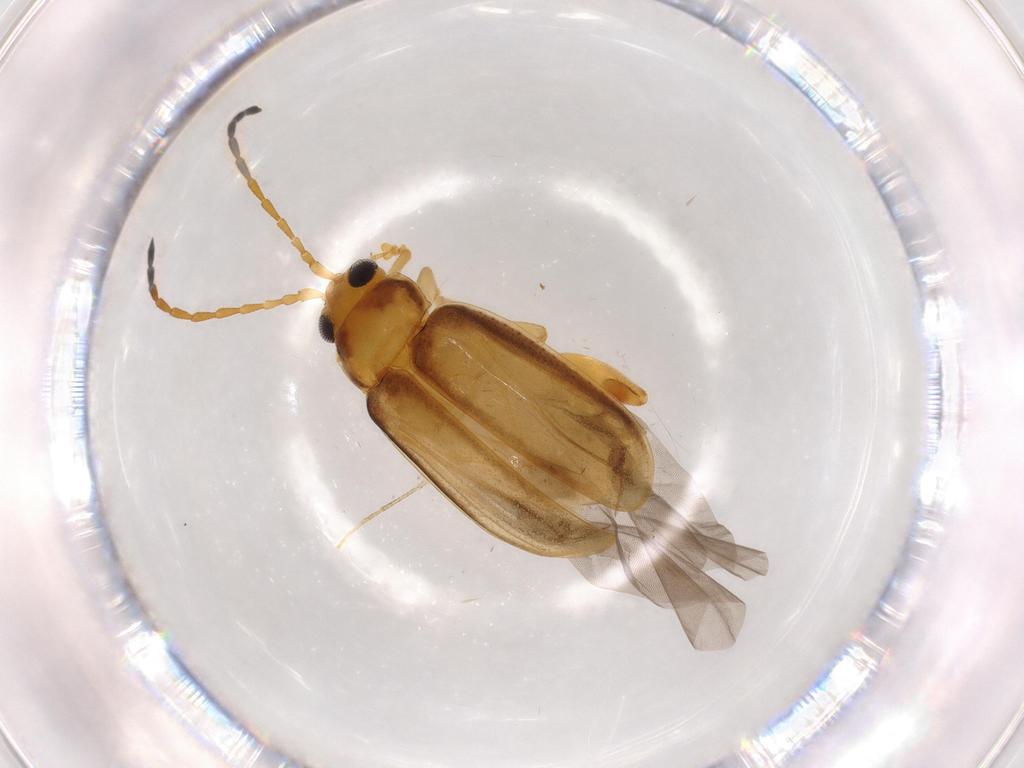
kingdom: Animalia
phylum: Arthropoda
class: Insecta
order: Coleoptera
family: Chrysomelidae
